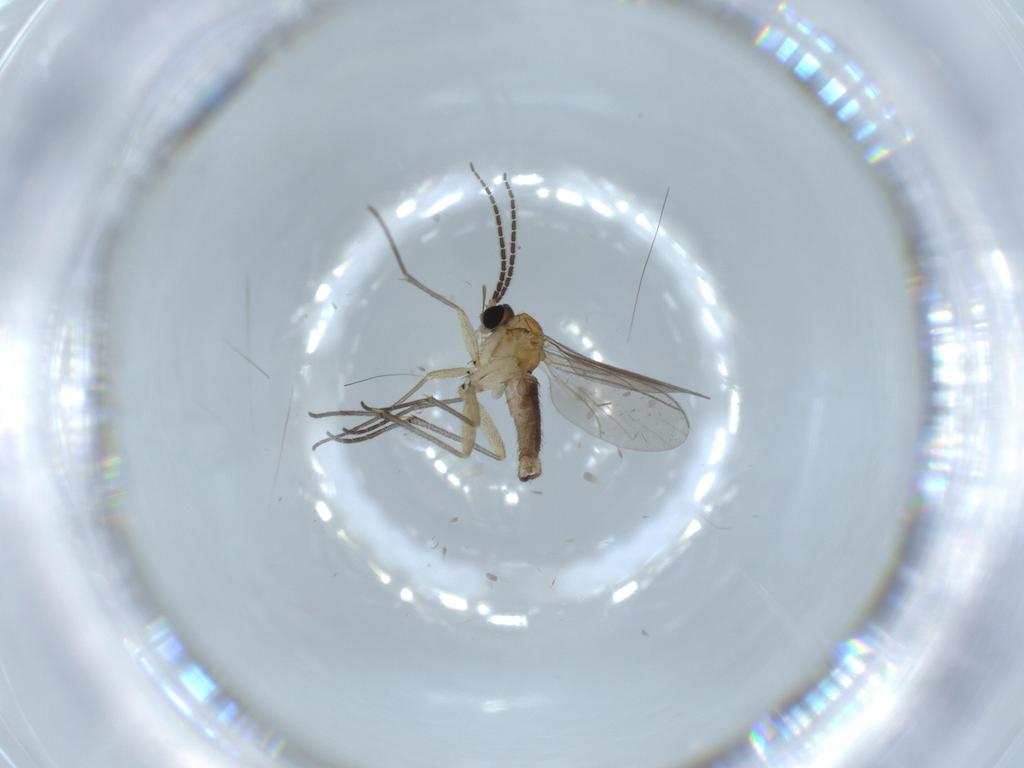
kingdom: Animalia
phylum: Arthropoda
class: Insecta
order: Diptera
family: Sciaridae
